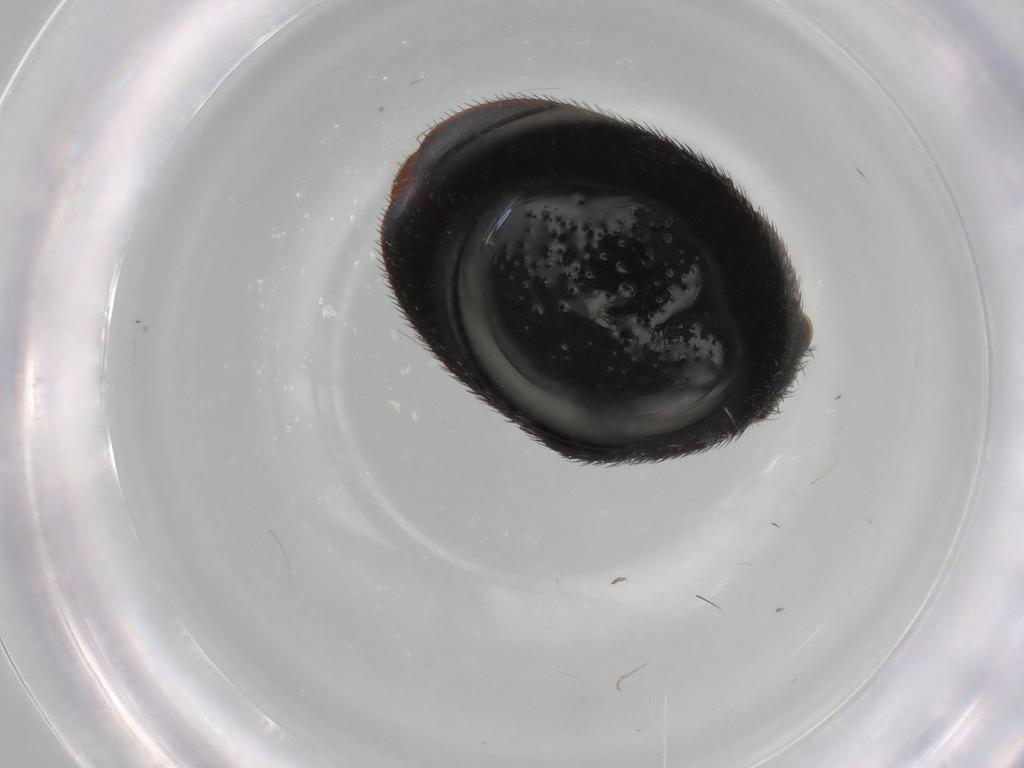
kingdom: Animalia
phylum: Arthropoda
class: Insecta
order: Coleoptera
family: Dermestidae
